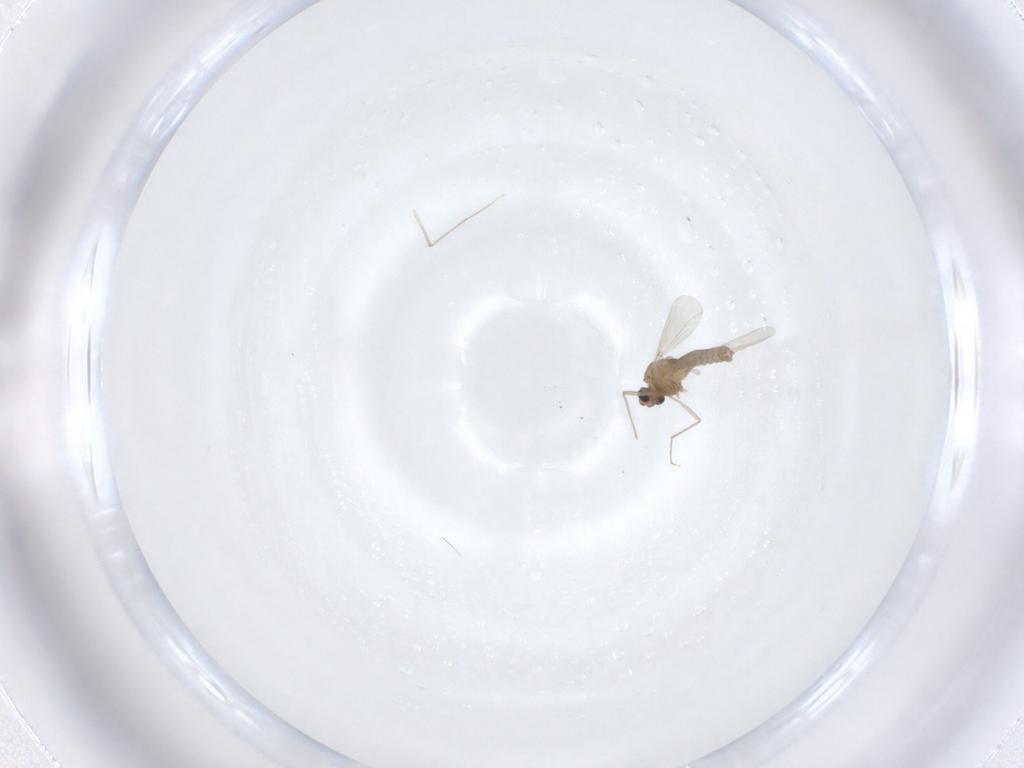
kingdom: Animalia
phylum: Arthropoda
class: Insecta
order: Diptera
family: Chironomidae
